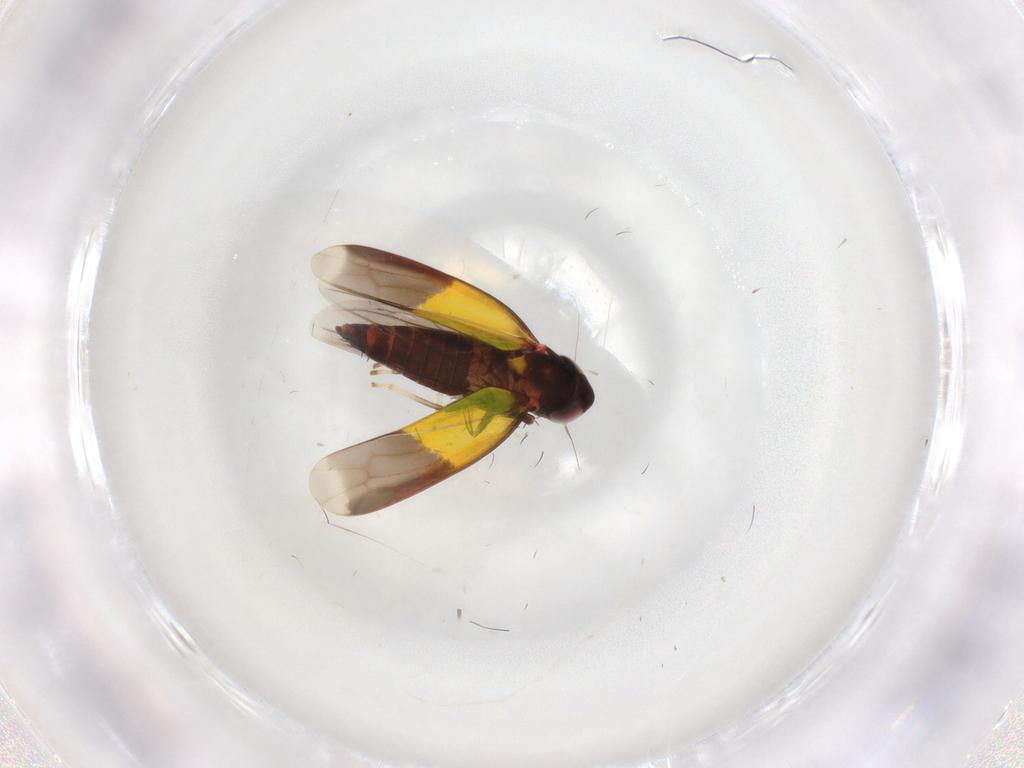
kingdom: Animalia
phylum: Arthropoda
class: Insecta
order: Hemiptera
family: Cicadellidae
